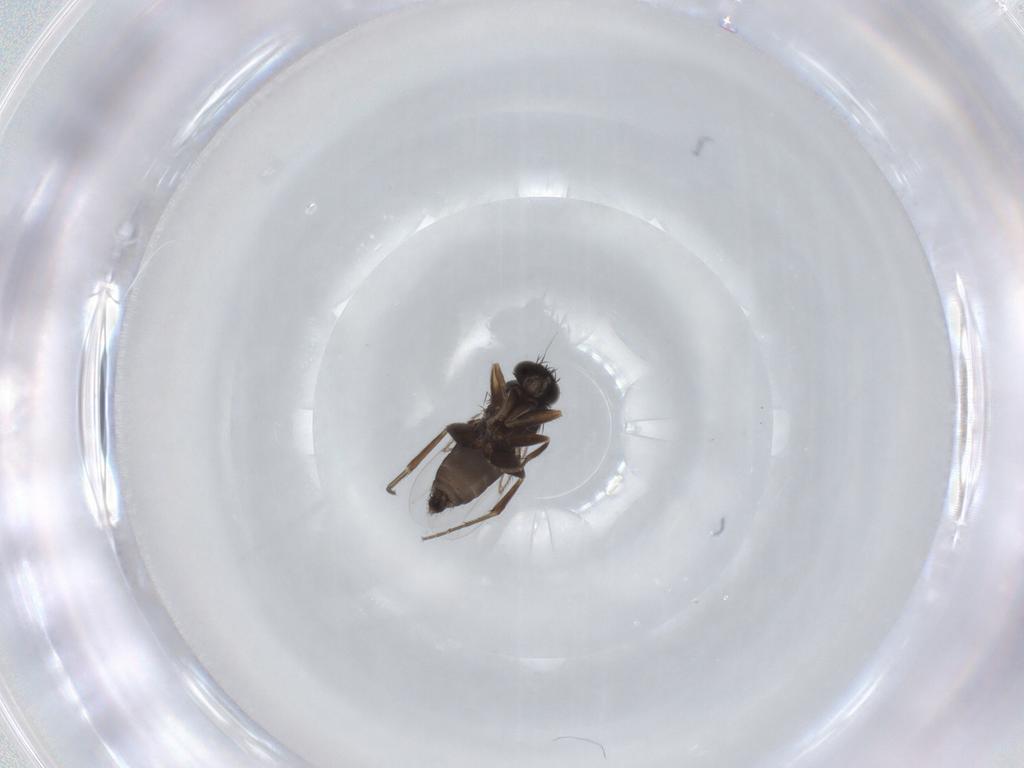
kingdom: Animalia
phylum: Arthropoda
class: Insecta
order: Diptera
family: Phoridae
